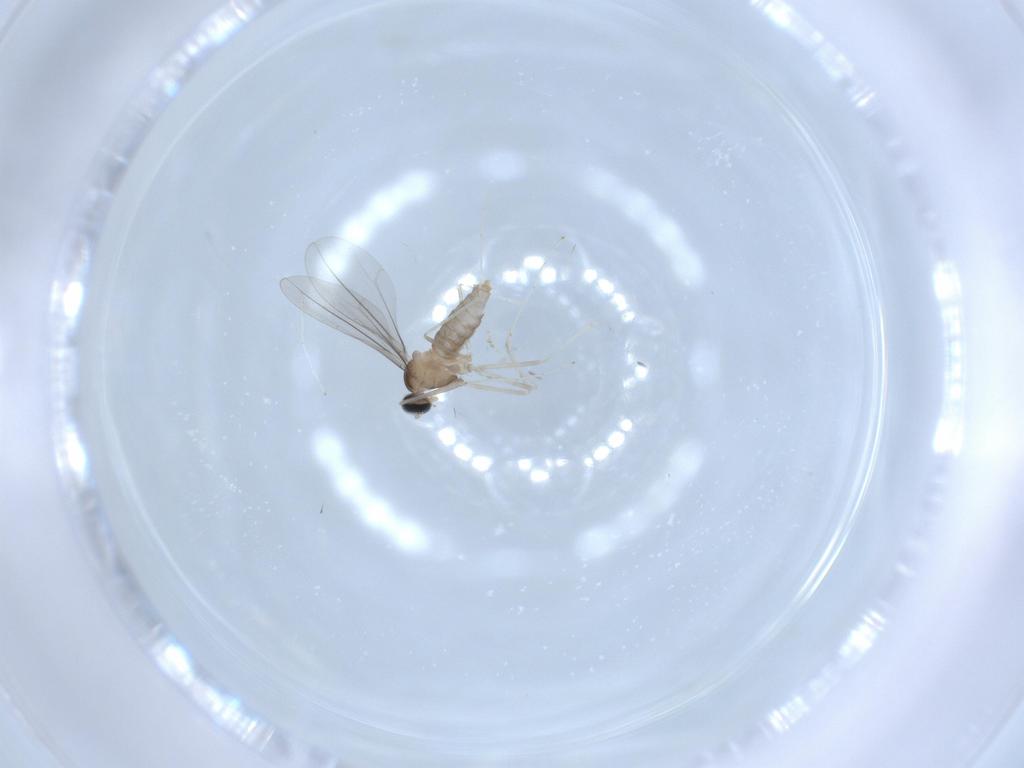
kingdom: Animalia
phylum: Arthropoda
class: Insecta
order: Diptera
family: Cecidomyiidae
